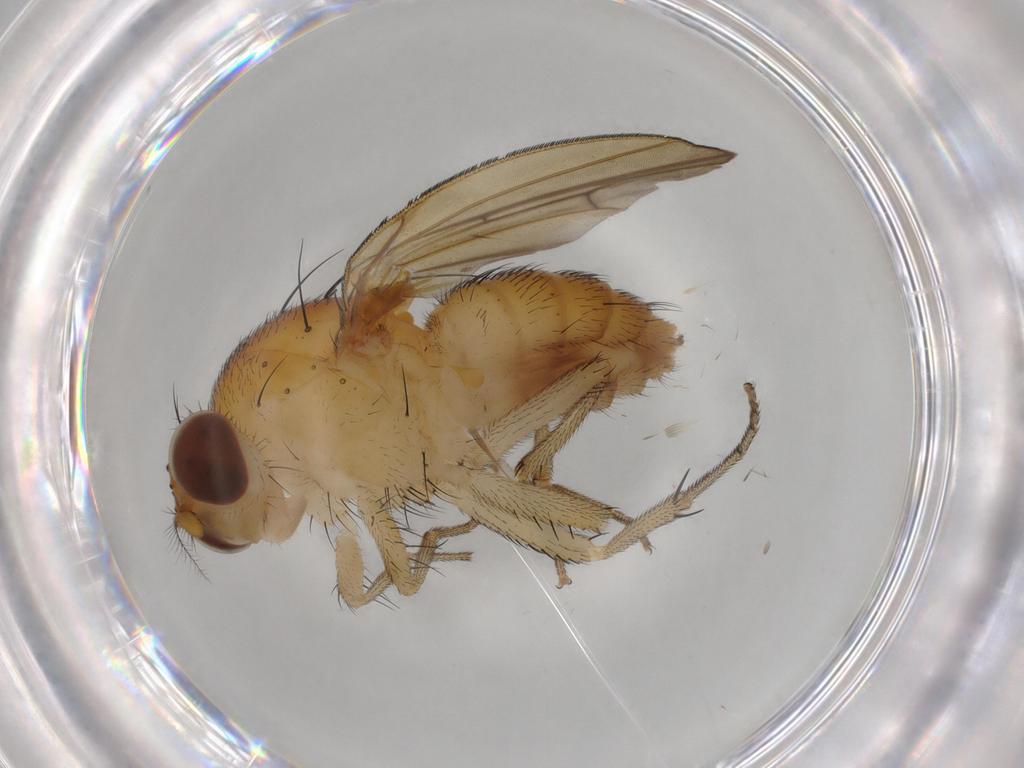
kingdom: Animalia
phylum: Arthropoda
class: Insecta
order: Diptera
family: Lauxaniidae
